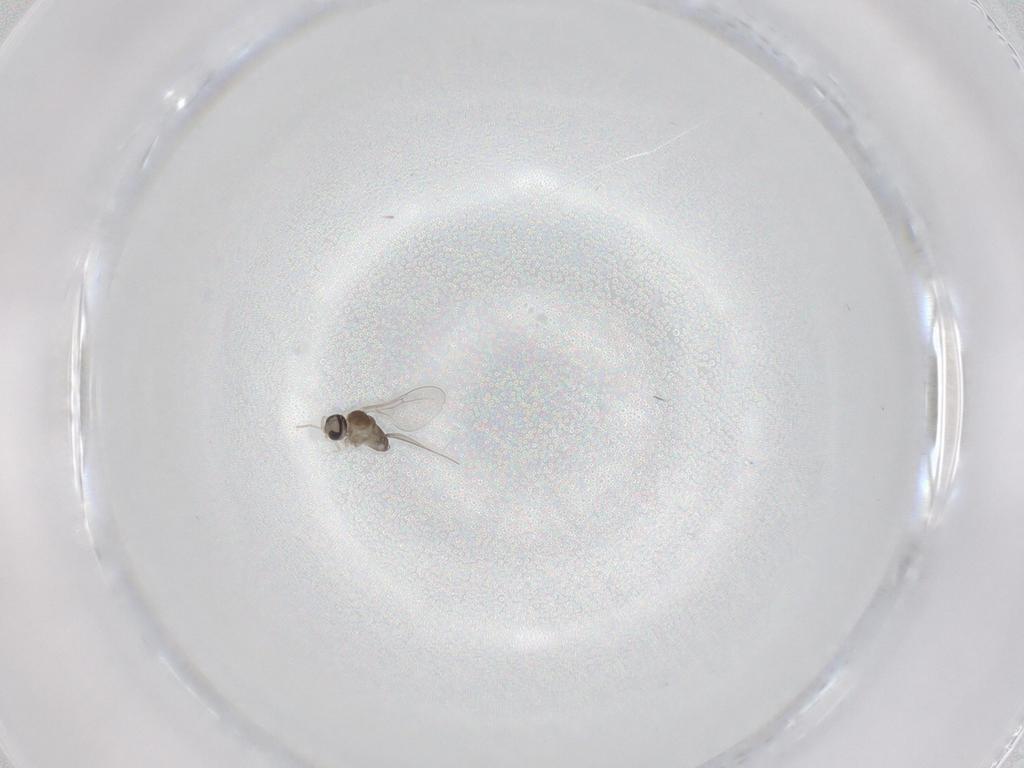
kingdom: Animalia
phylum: Arthropoda
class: Insecta
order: Diptera
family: Cecidomyiidae
